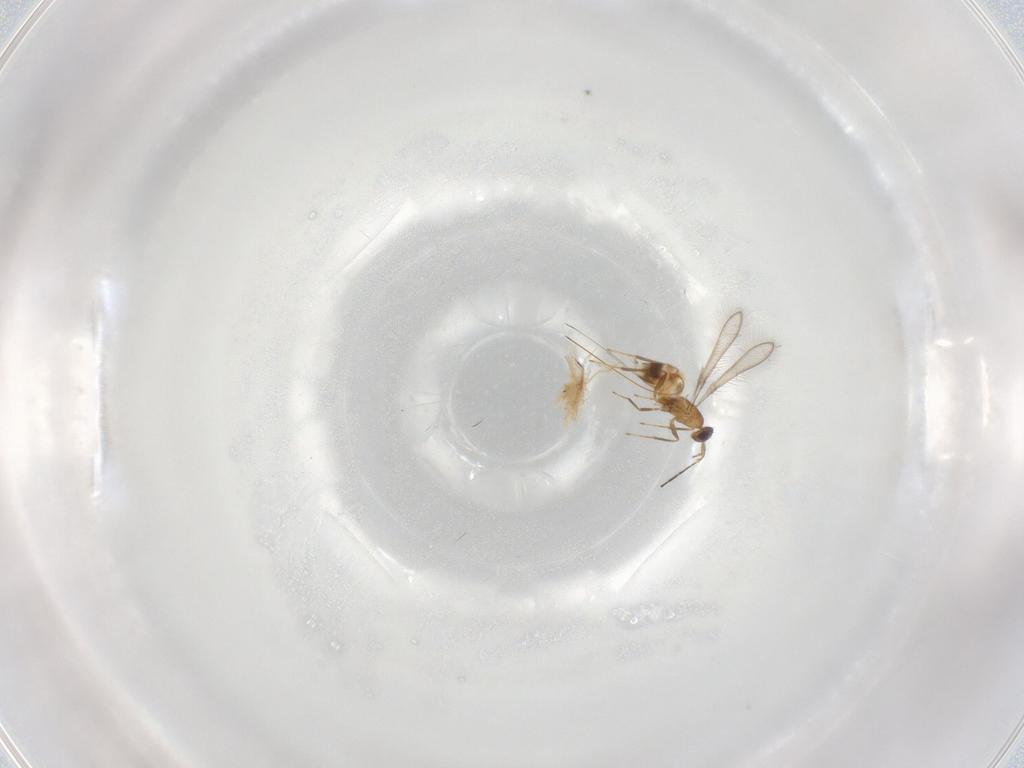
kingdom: Animalia
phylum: Arthropoda
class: Insecta
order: Hymenoptera
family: Mymaridae
